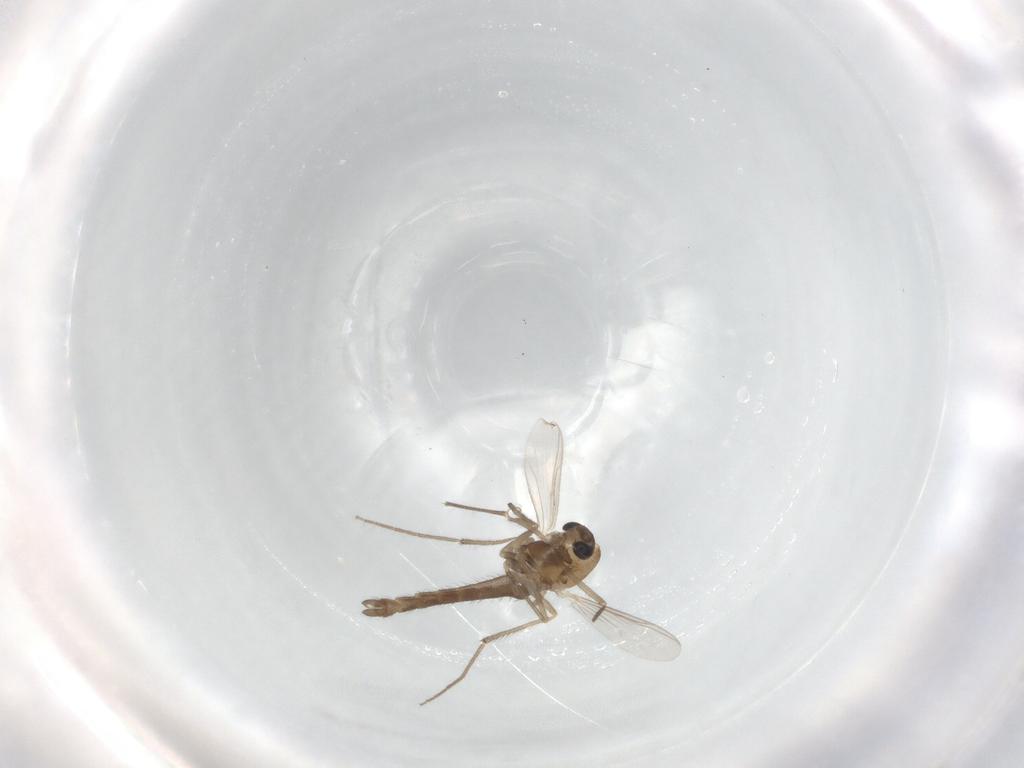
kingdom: Animalia
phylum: Arthropoda
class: Insecta
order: Diptera
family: Chironomidae
